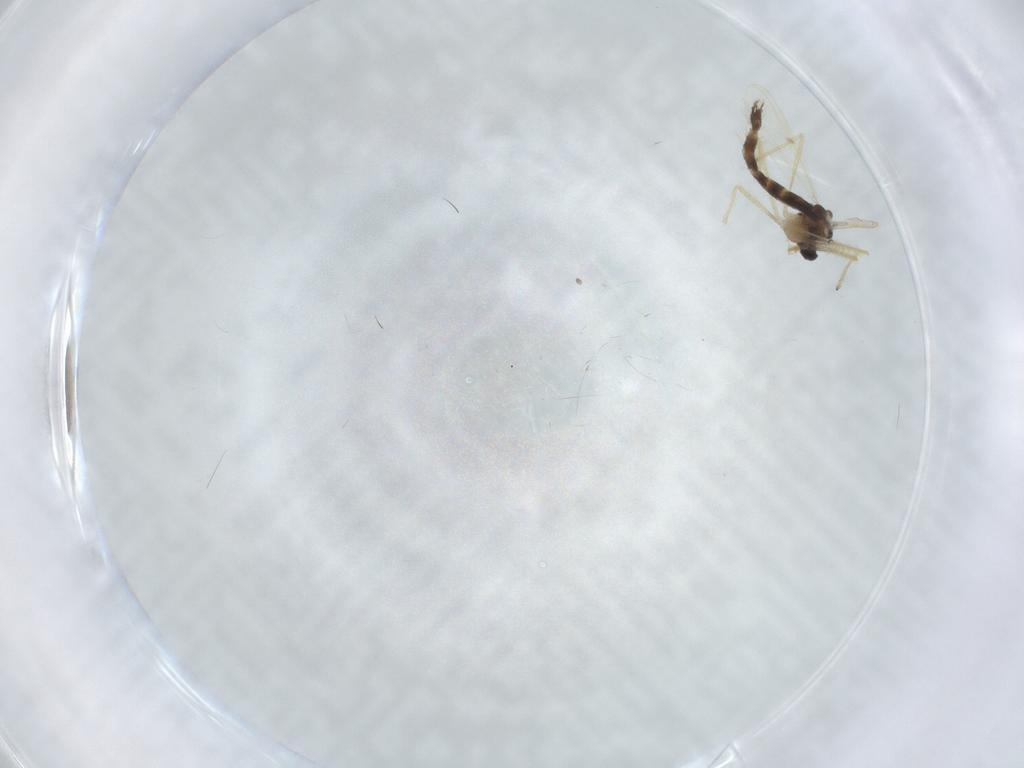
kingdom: Animalia
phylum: Arthropoda
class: Insecta
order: Diptera
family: Chironomidae
